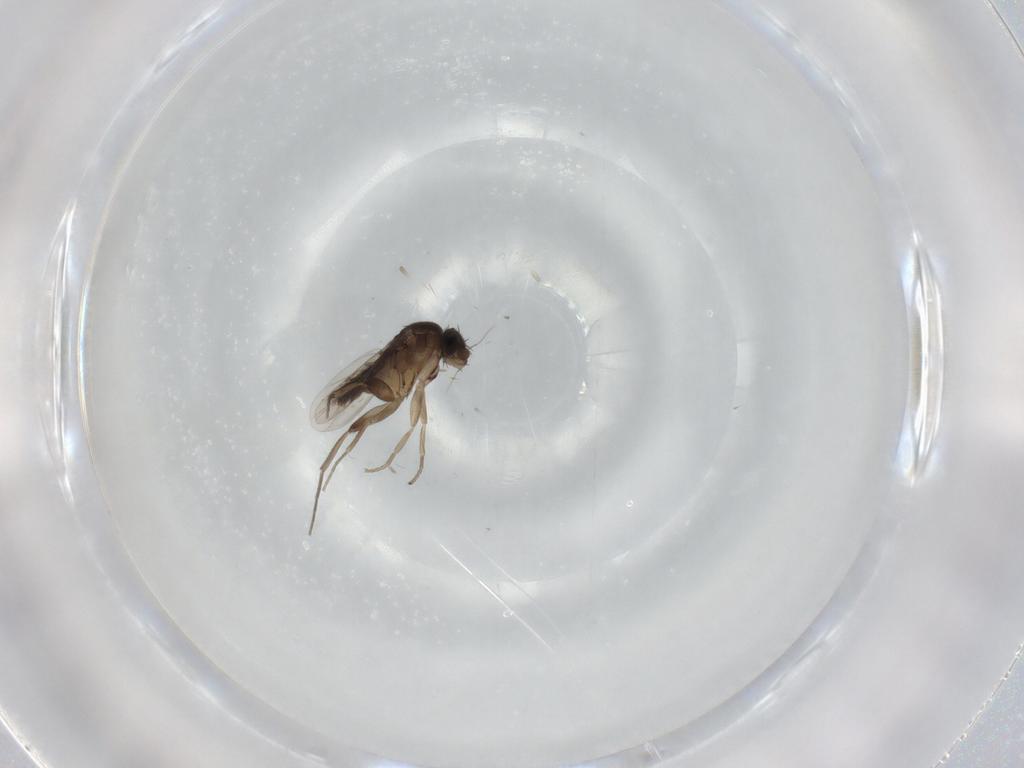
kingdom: Animalia
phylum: Arthropoda
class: Insecta
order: Diptera
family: Phoridae
